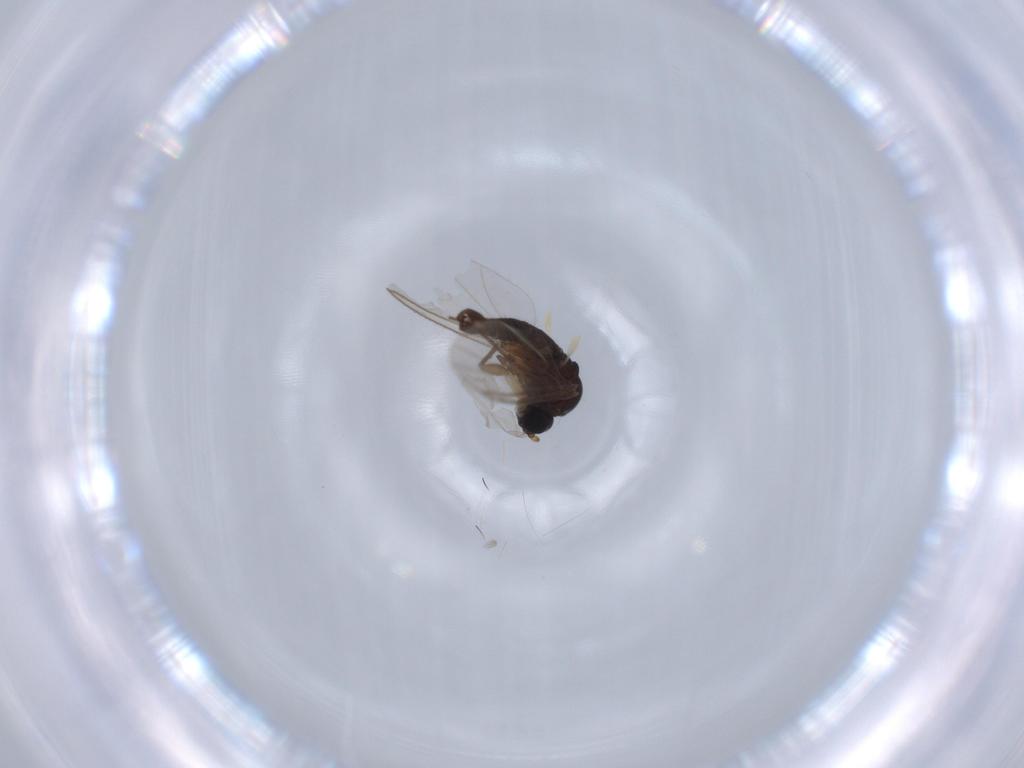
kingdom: Animalia
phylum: Arthropoda
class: Insecta
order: Diptera
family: Sciaridae
